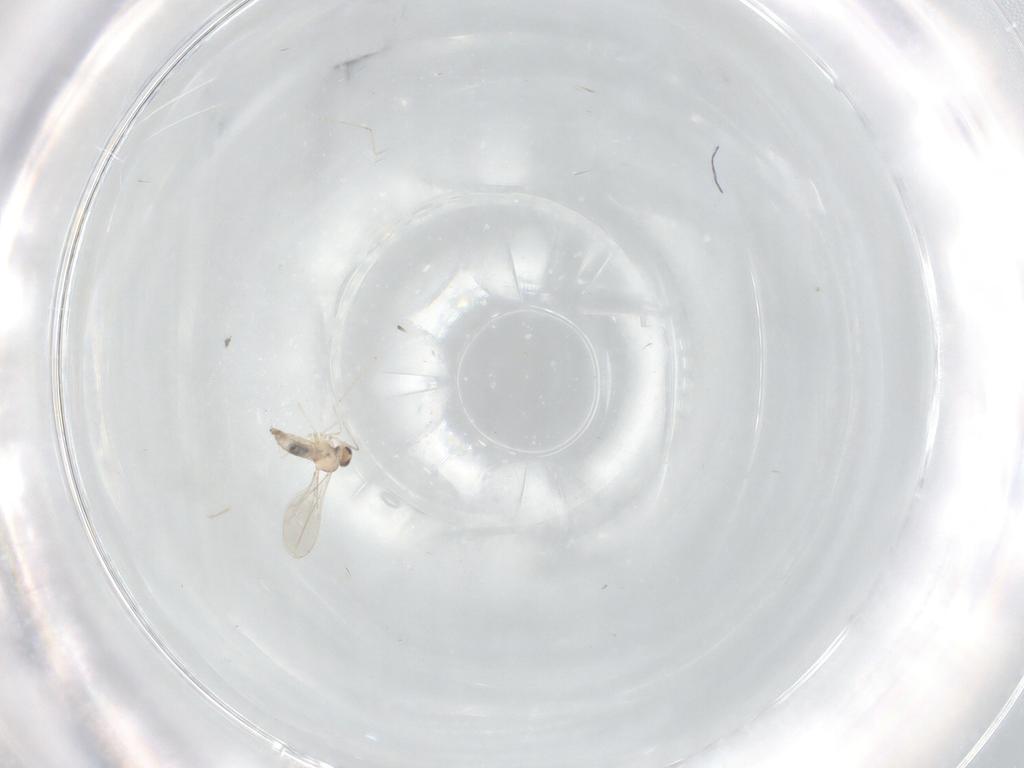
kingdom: Animalia
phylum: Arthropoda
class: Insecta
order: Diptera
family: Cecidomyiidae
